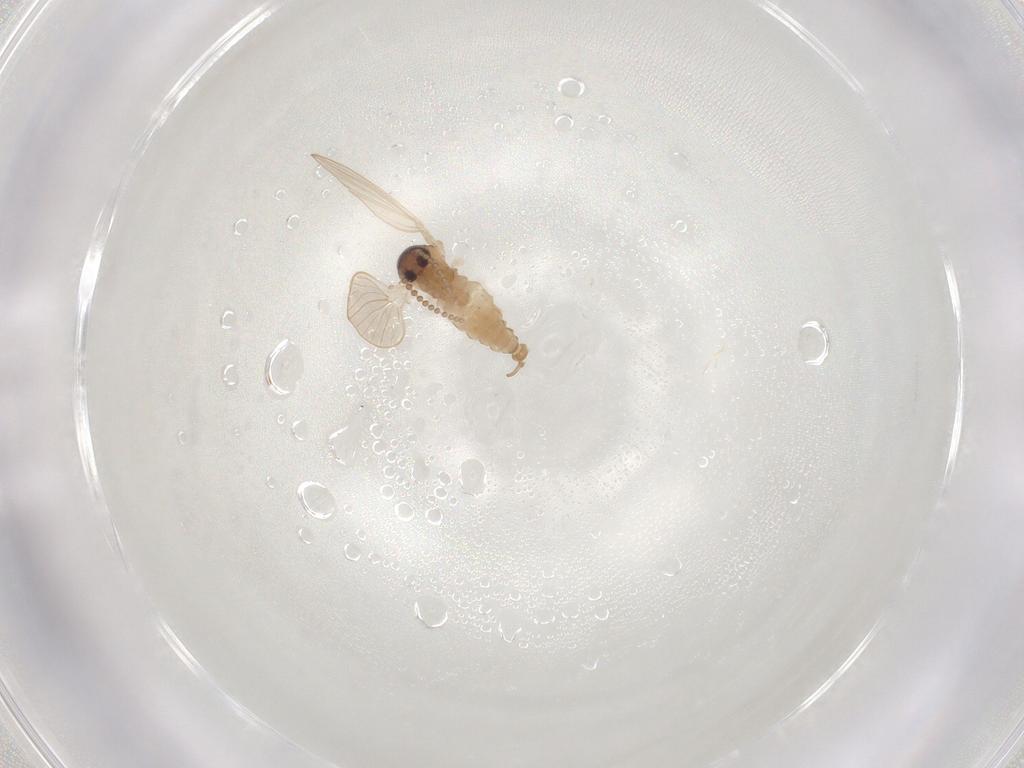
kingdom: Animalia
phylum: Arthropoda
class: Insecta
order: Diptera
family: Psychodidae
